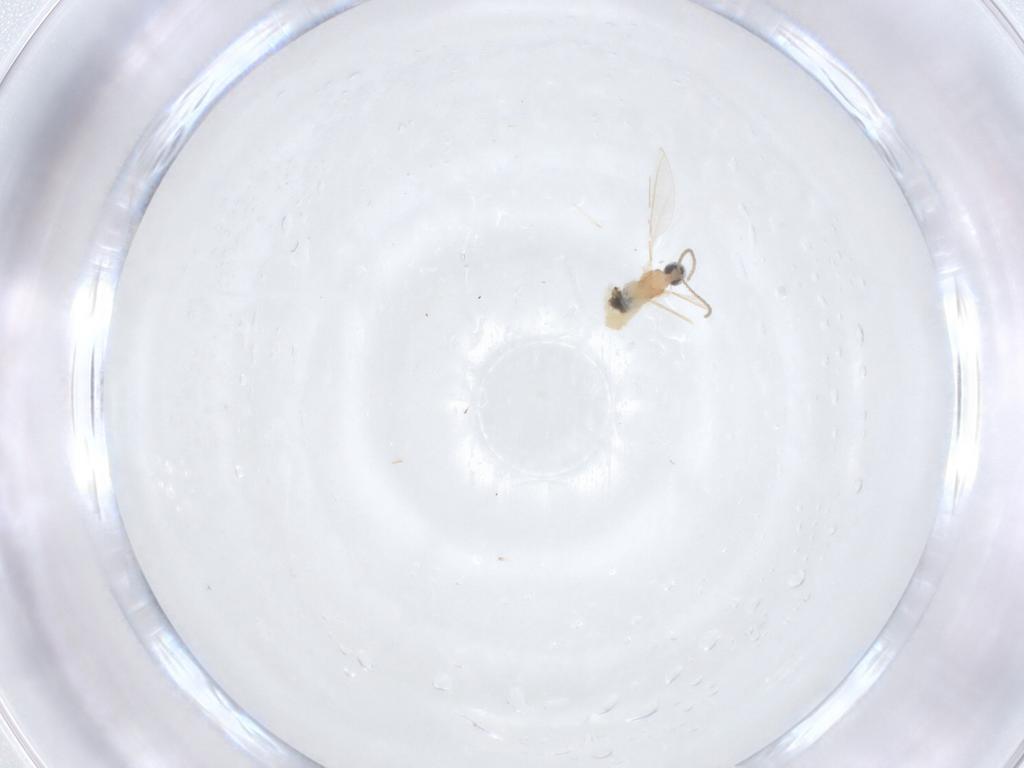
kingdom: Animalia
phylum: Arthropoda
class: Insecta
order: Diptera
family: Cecidomyiidae
